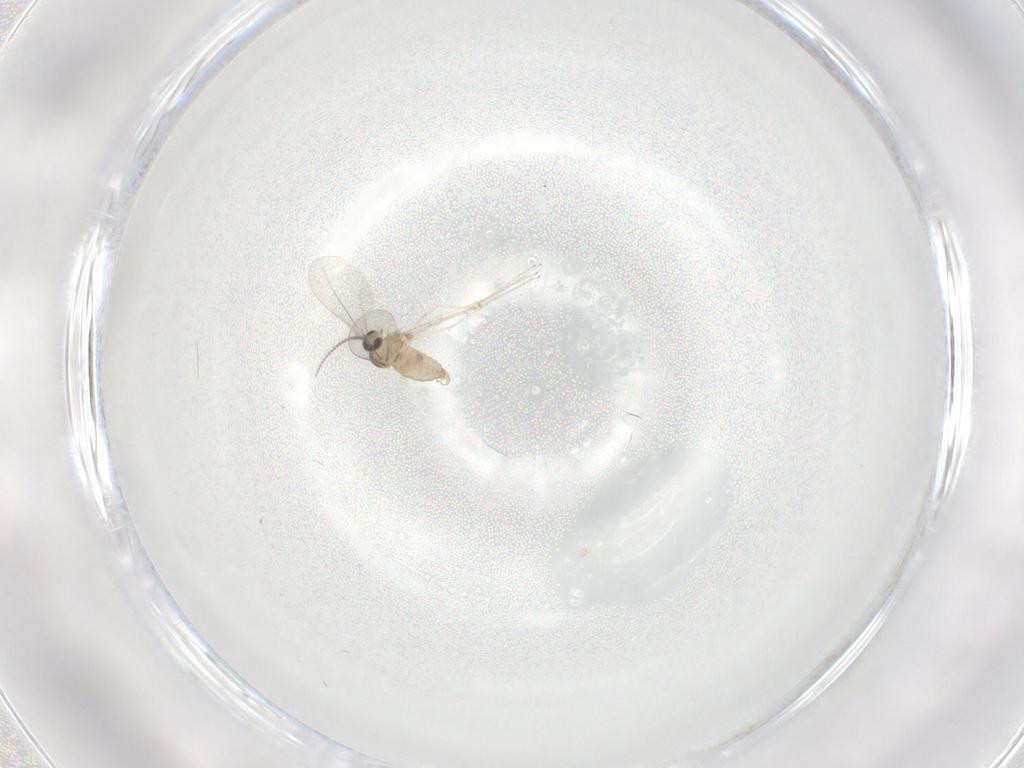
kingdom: Animalia
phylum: Arthropoda
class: Insecta
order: Diptera
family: Cecidomyiidae
